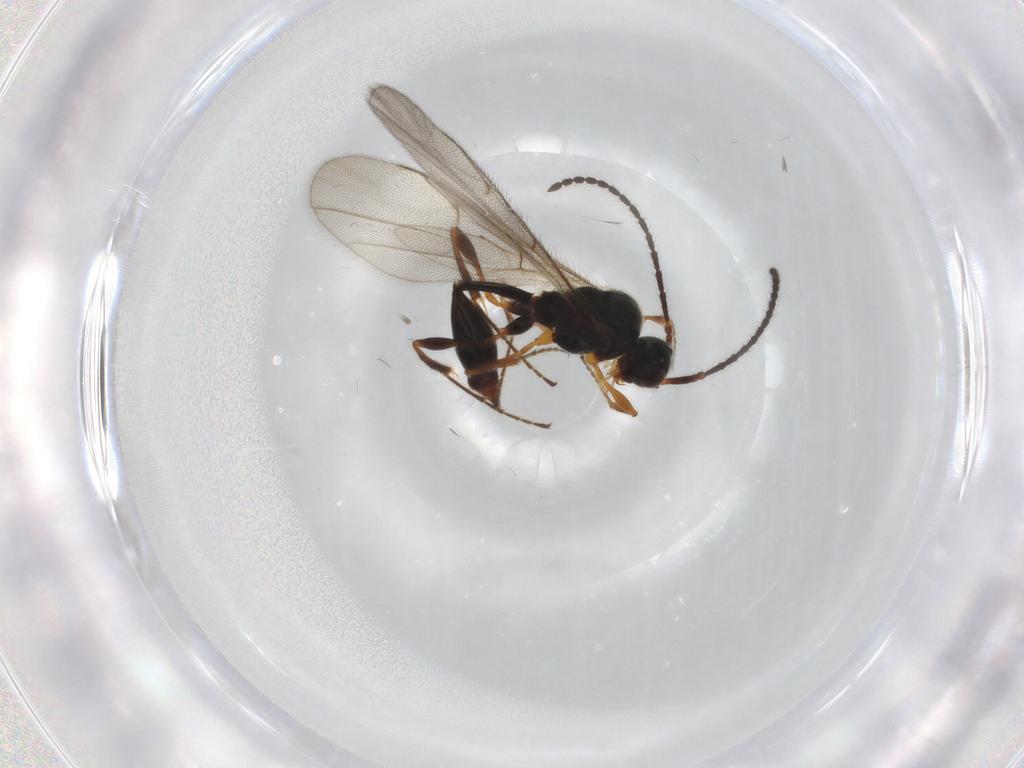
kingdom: Animalia
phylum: Arthropoda
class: Insecta
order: Hymenoptera
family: Diapriidae
